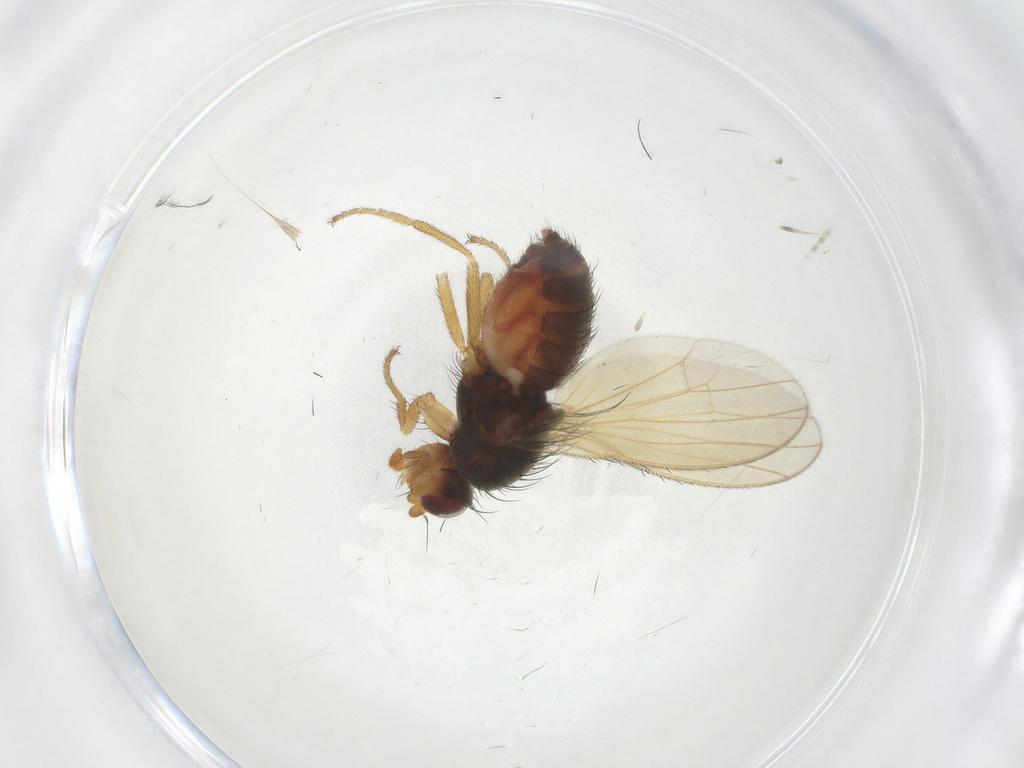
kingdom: Animalia
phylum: Arthropoda
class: Insecta
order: Diptera
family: Heleomyzidae
